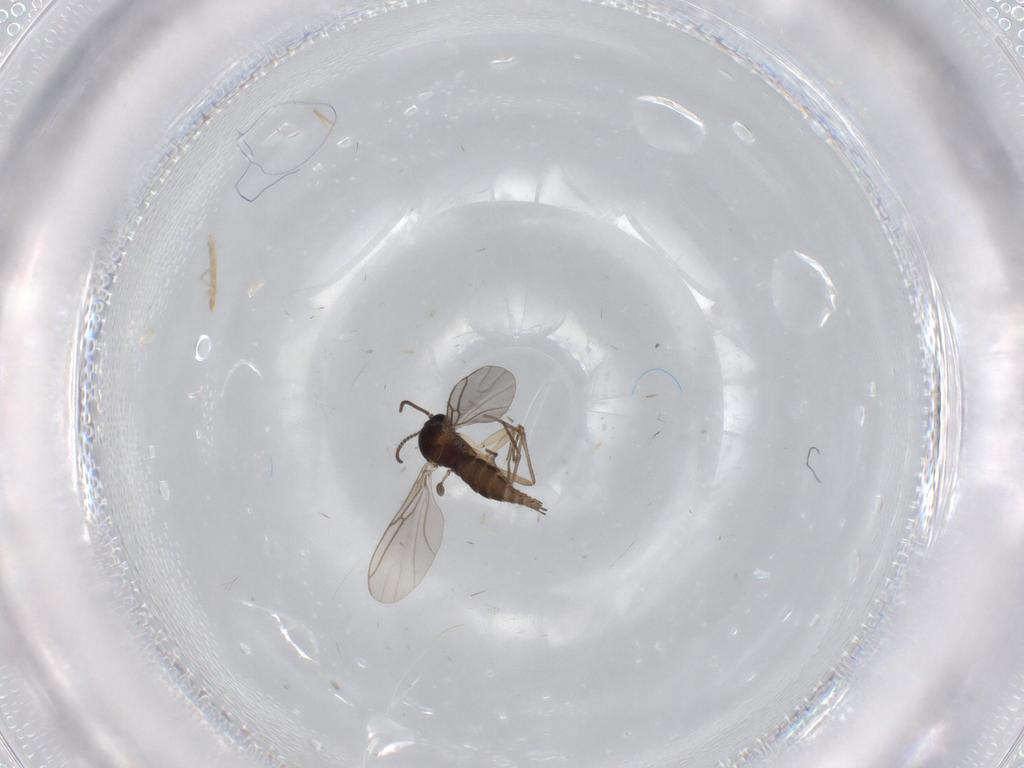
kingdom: Animalia
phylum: Arthropoda
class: Insecta
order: Diptera
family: Sciaridae
